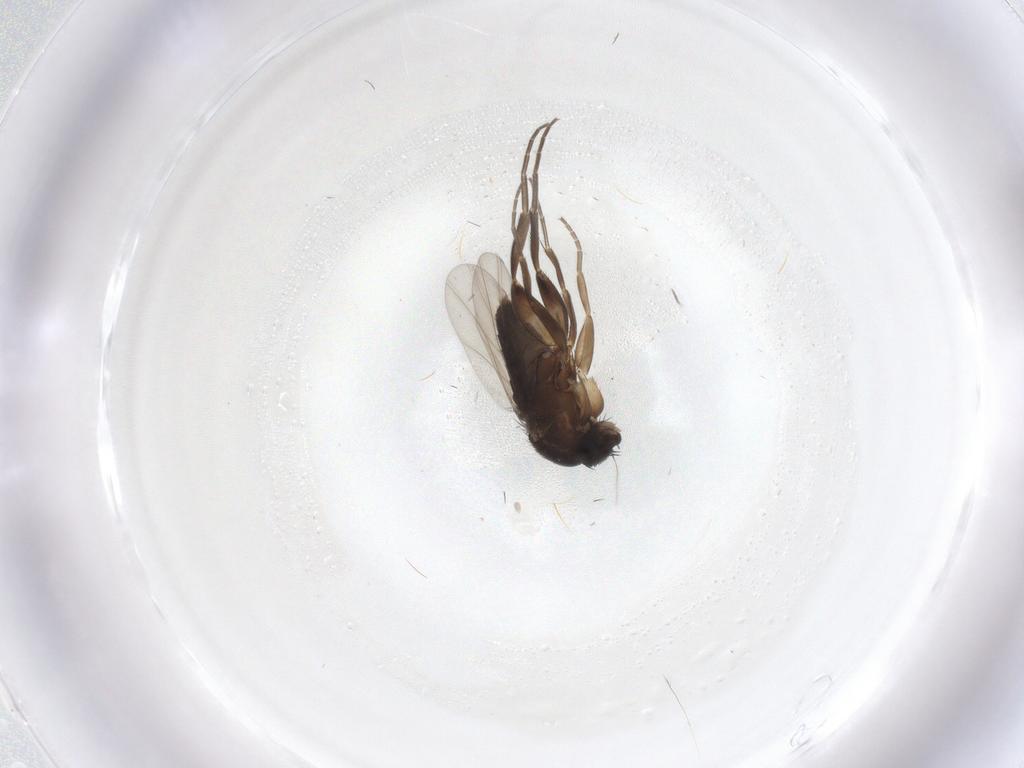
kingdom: Animalia
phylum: Arthropoda
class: Insecta
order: Diptera
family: Phoridae
